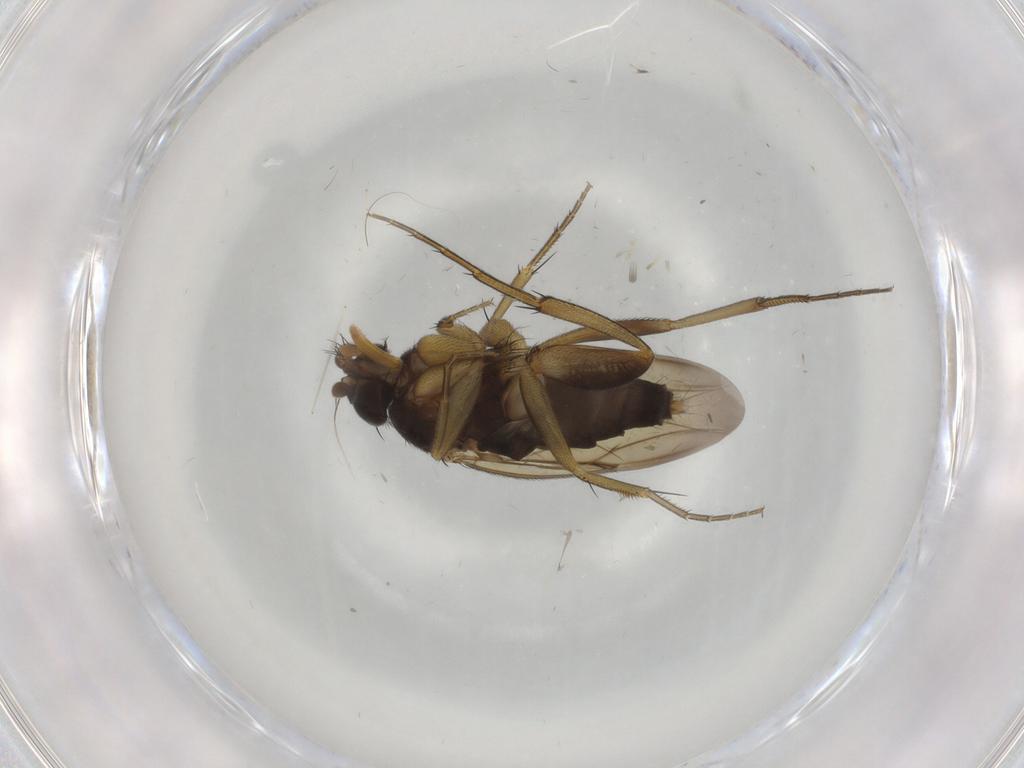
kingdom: Animalia
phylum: Arthropoda
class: Insecta
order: Diptera
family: Phoridae
